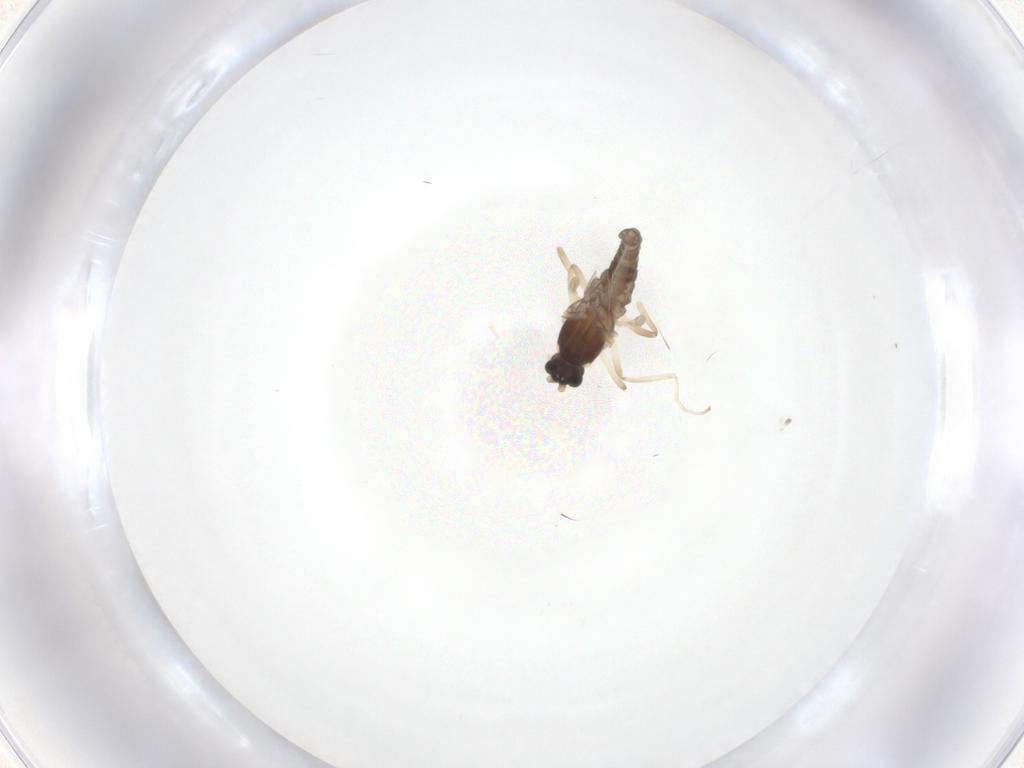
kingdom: Animalia
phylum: Arthropoda
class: Insecta
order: Diptera
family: Cecidomyiidae
